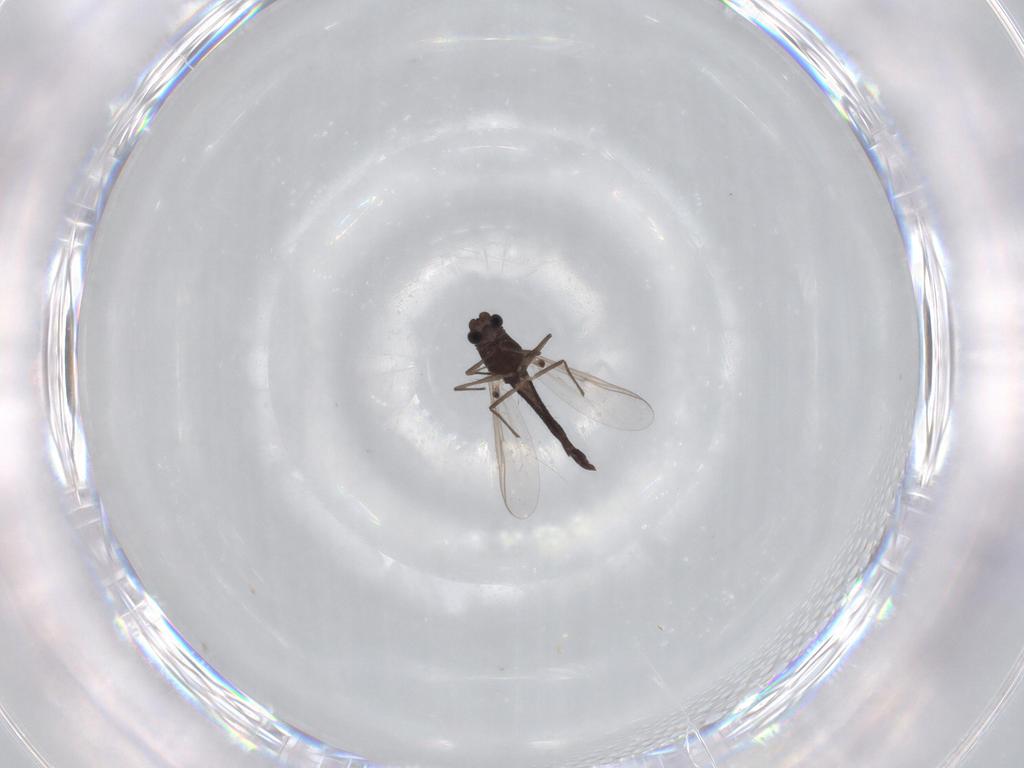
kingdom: Animalia
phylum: Arthropoda
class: Insecta
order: Diptera
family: Chironomidae
